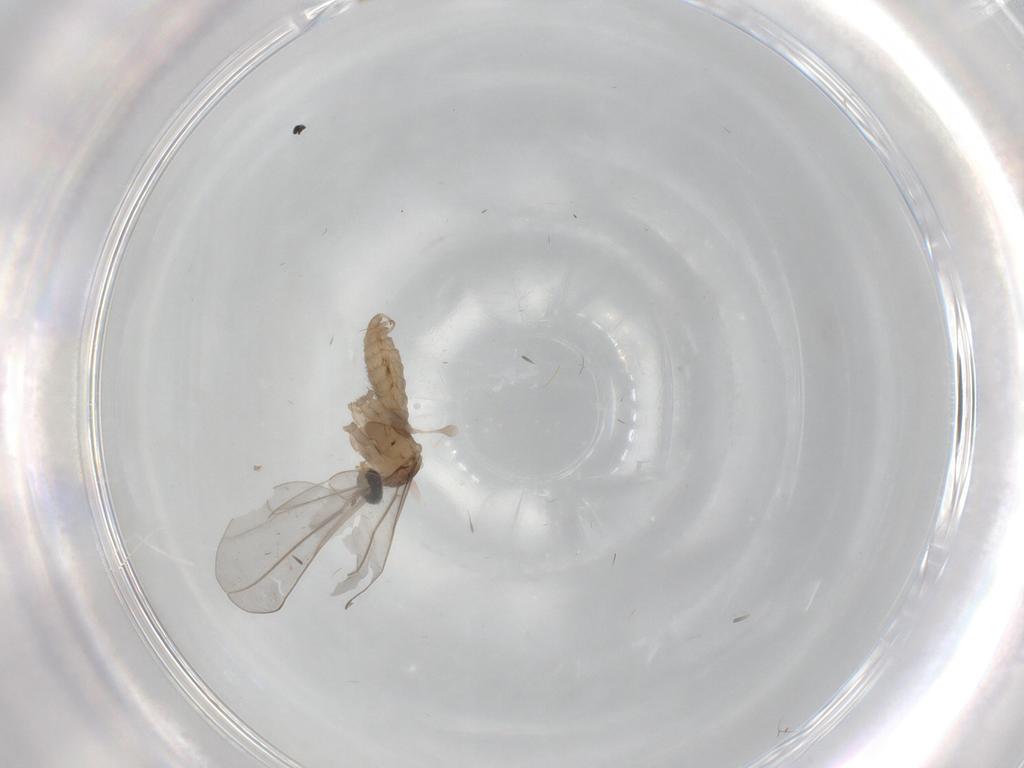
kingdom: Animalia
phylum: Arthropoda
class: Insecta
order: Diptera
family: Cecidomyiidae
